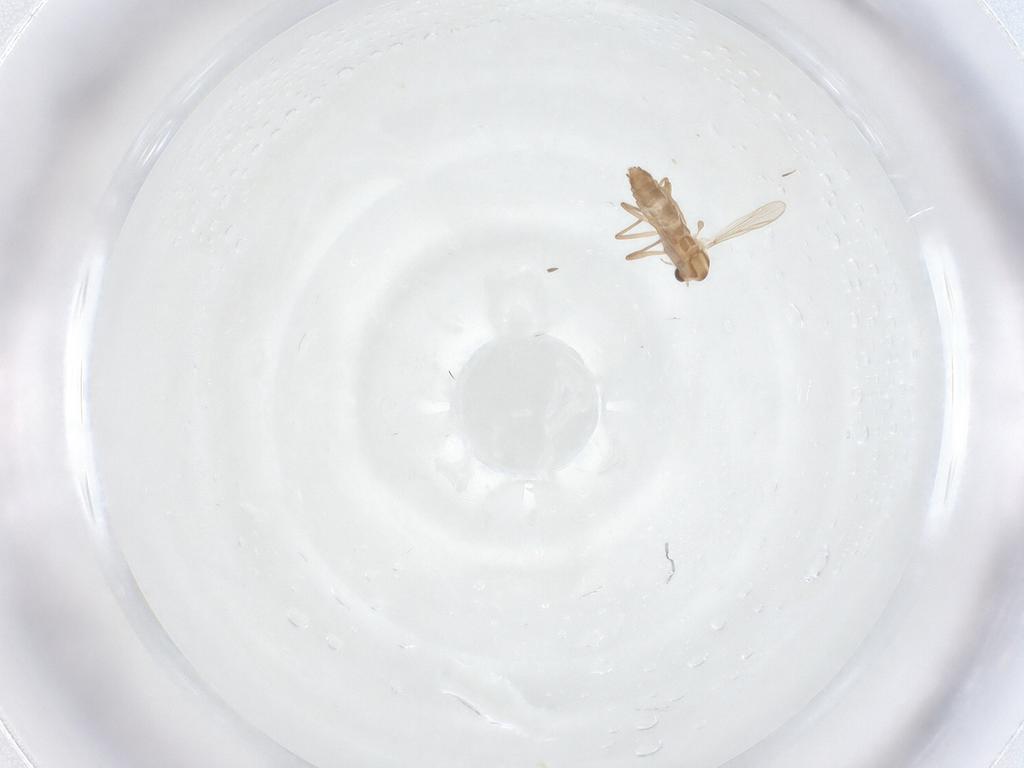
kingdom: Animalia
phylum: Arthropoda
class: Insecta
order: Diptera
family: Chironomidae
